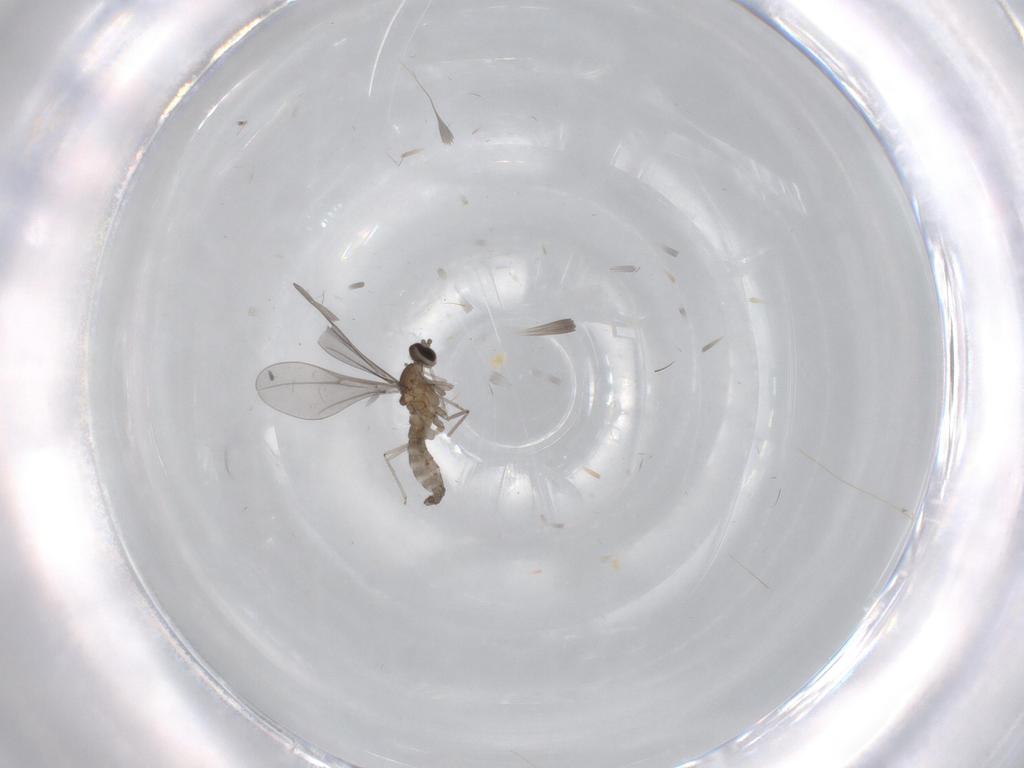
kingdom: Animalia
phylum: Arthropoda
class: Insecta
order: Diptera
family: Cecidomyiidae
